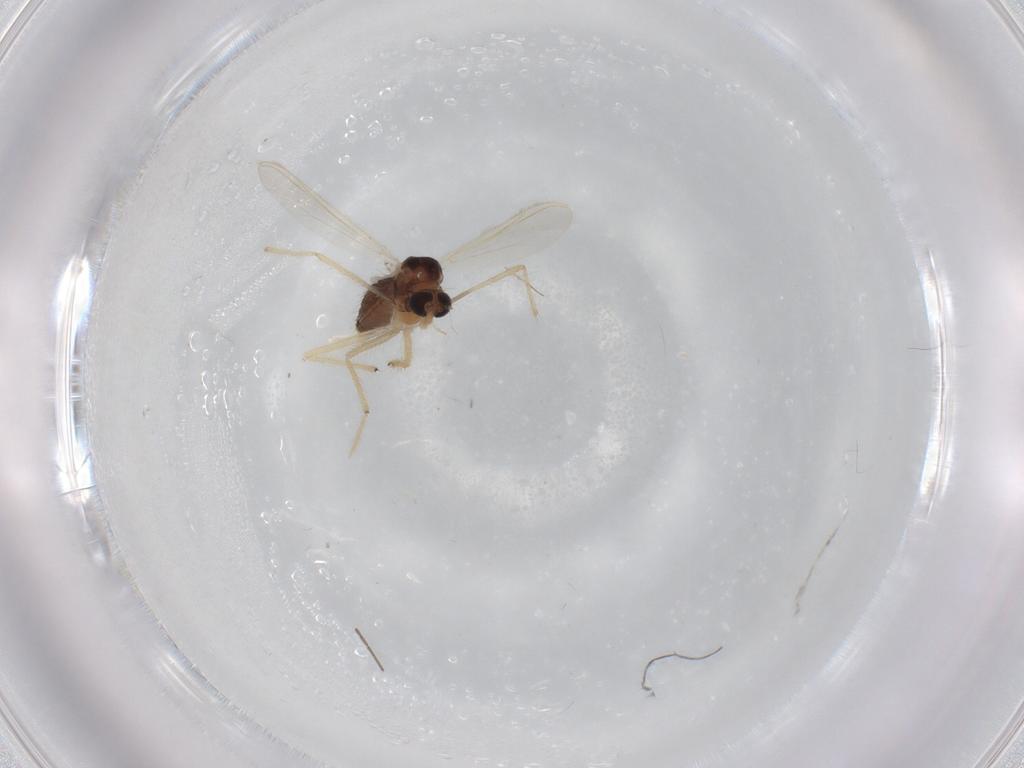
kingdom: Animalia
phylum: Arthropoda
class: Insecta
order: Diptera
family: Chironomidae
